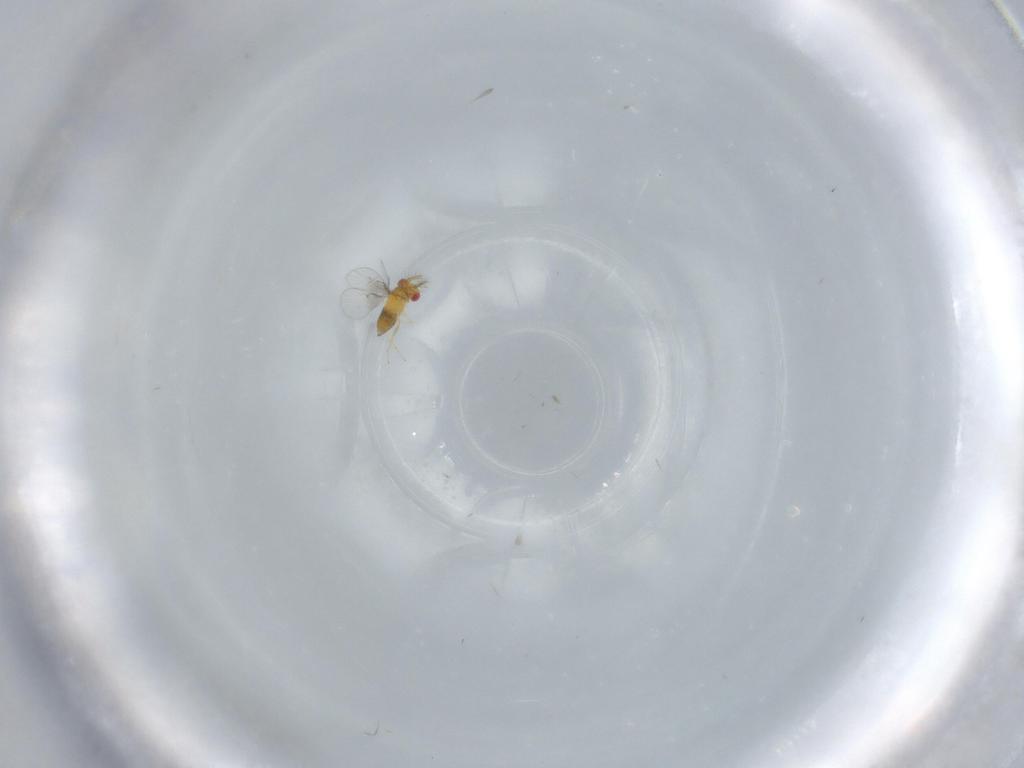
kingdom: Animalia
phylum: Arthropoda
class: Insecta
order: Hymenoptera
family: Trichogrammatidae
